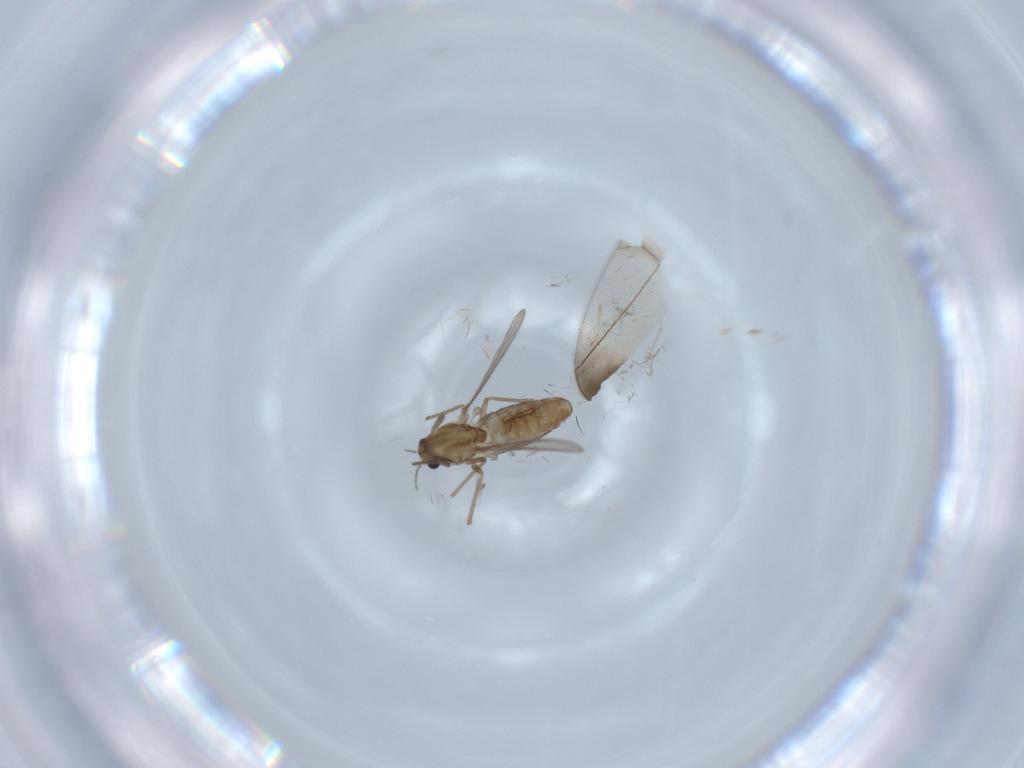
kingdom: Animalia
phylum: Arthropoda
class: Insecta
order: Diptera
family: Chironomidae
